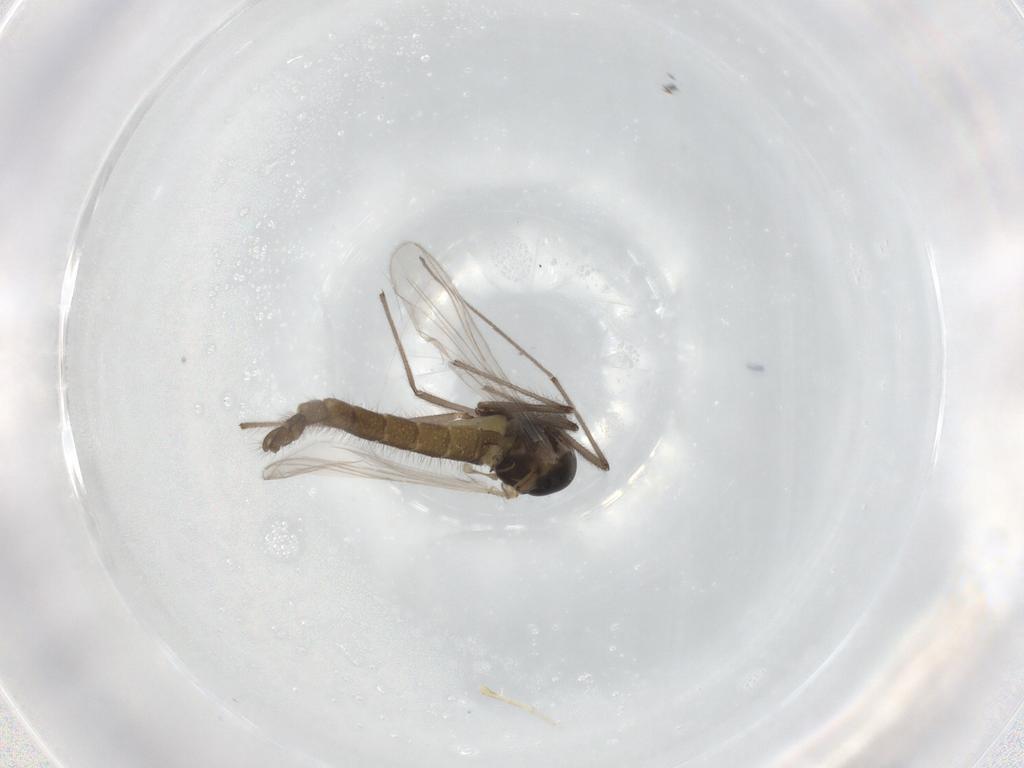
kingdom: Animalia
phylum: Arthropoda
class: Insecta
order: Diptera
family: Chironomidae
